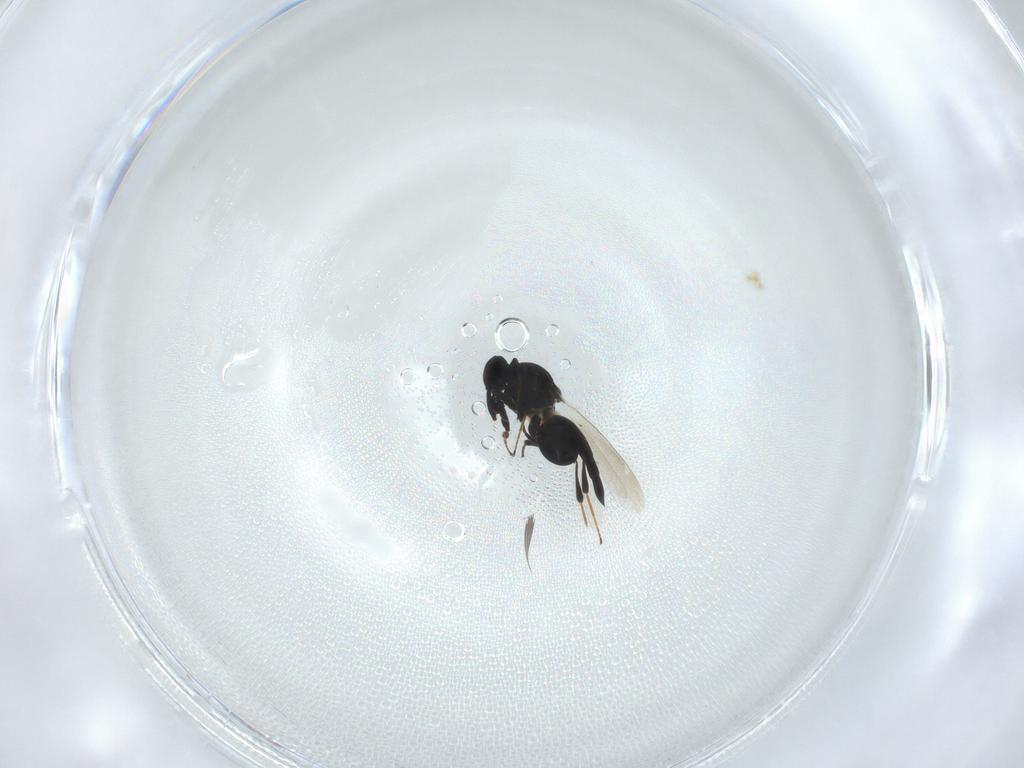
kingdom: Animalia
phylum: Arthropoda
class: Insecta
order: Hymenoptera
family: Platygastridae
